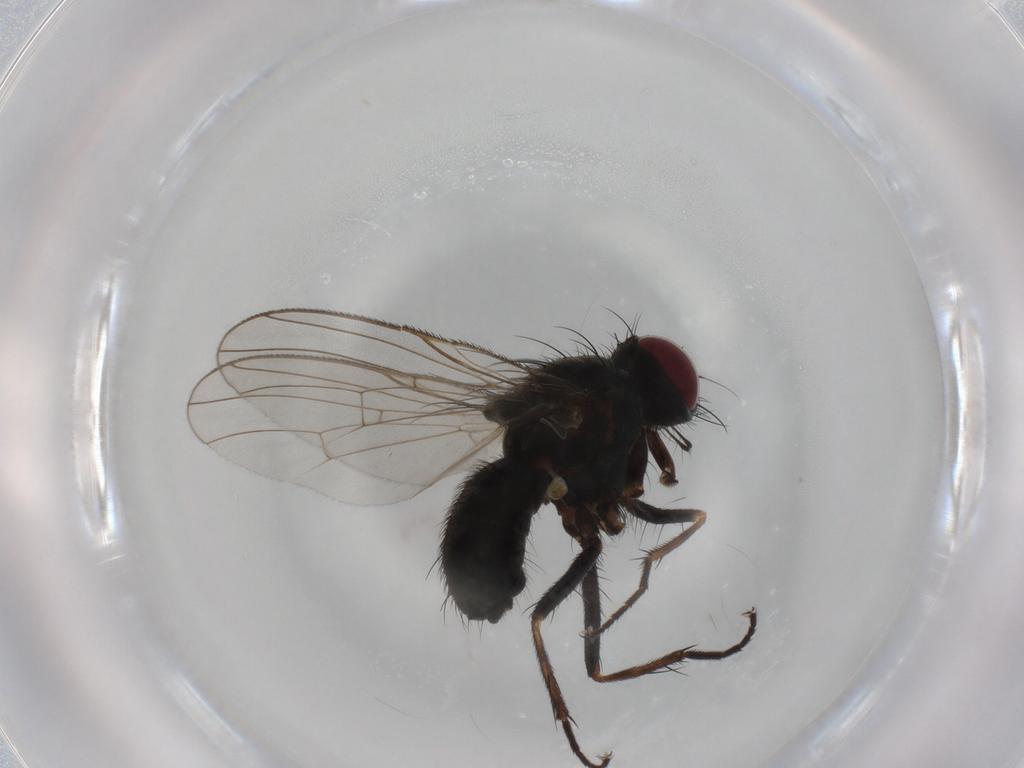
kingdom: Animalia
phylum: Arthropoda
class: Insecta
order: Diptera
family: Muscidae
